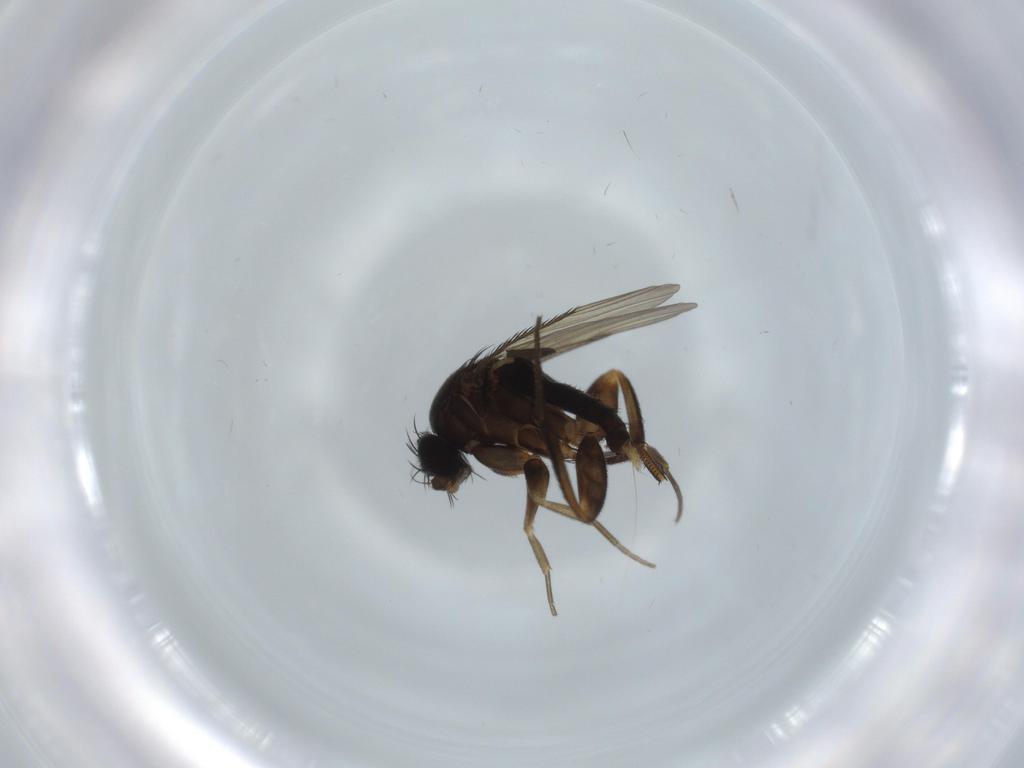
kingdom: Animalia
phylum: Arthropoda
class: Insecta
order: Diptera
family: Phoridae
